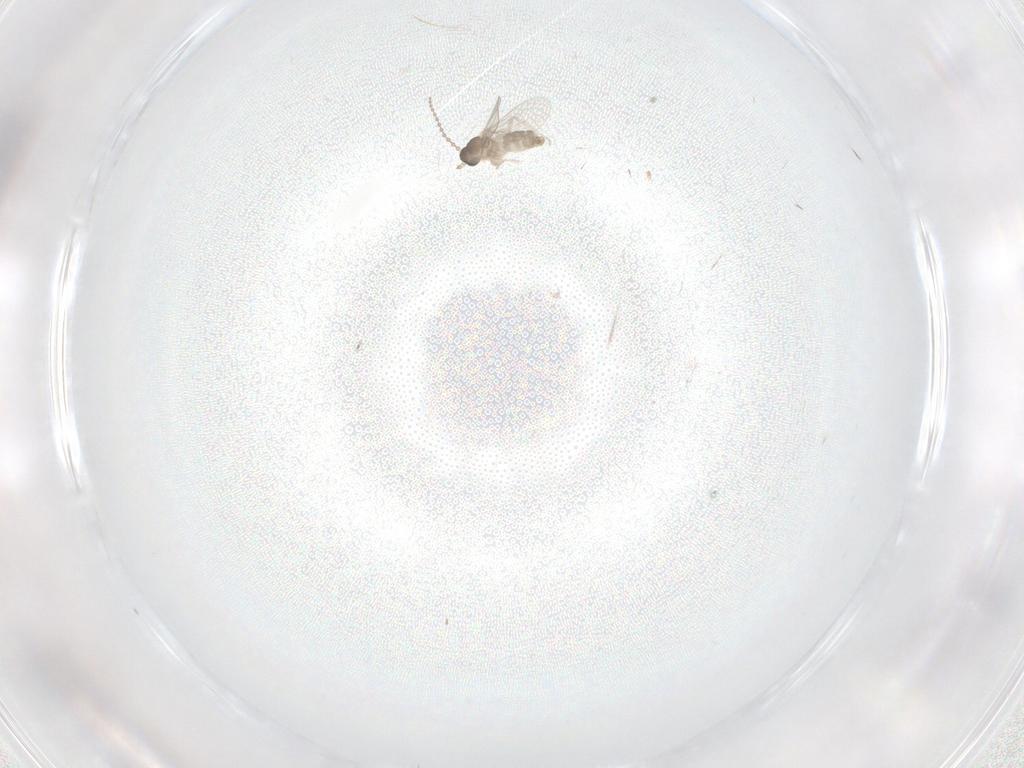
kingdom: Animalia
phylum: Arthropoda
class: Insecta
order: Diptera
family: Cecidomyiidae
